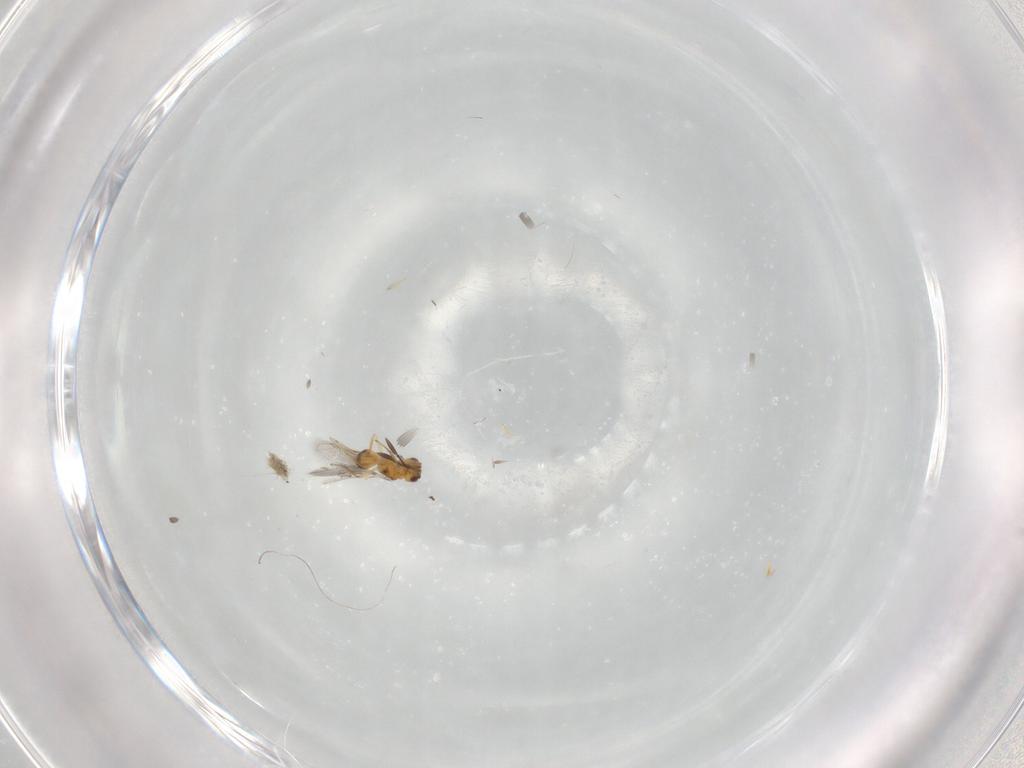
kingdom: Animalia
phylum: Arthropoda
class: Insecta
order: Hymenoptera
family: Mymaridae
